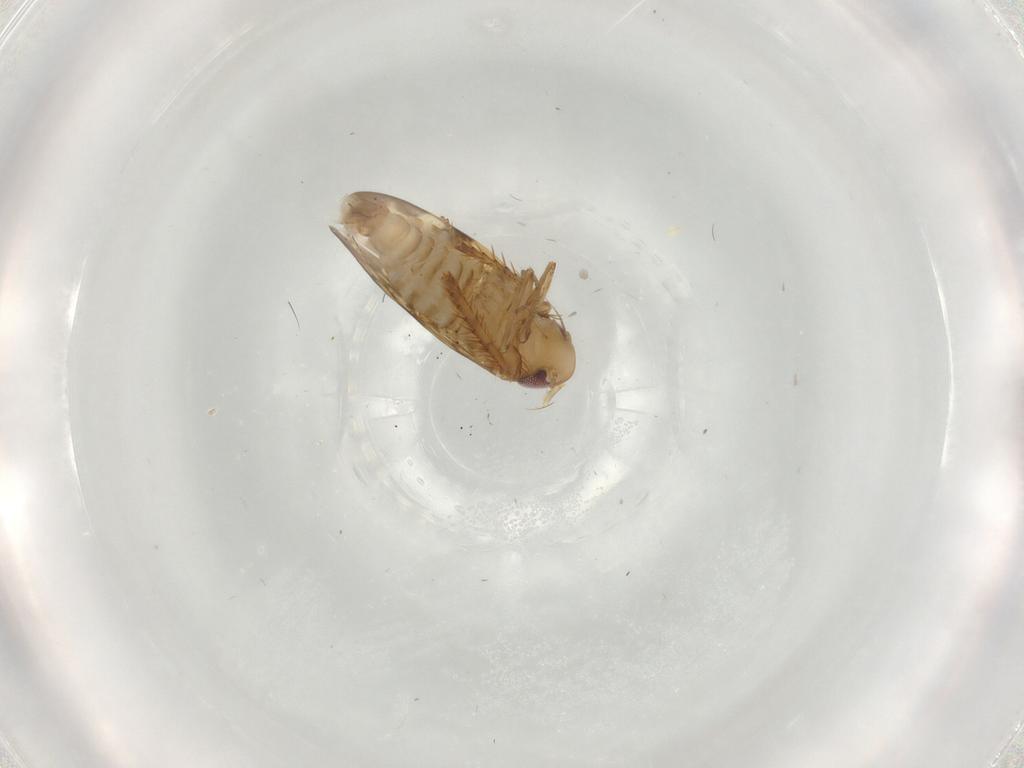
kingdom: Animalia
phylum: Arthropoda
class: Insecta
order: Hemiptera
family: Cicadellidae
